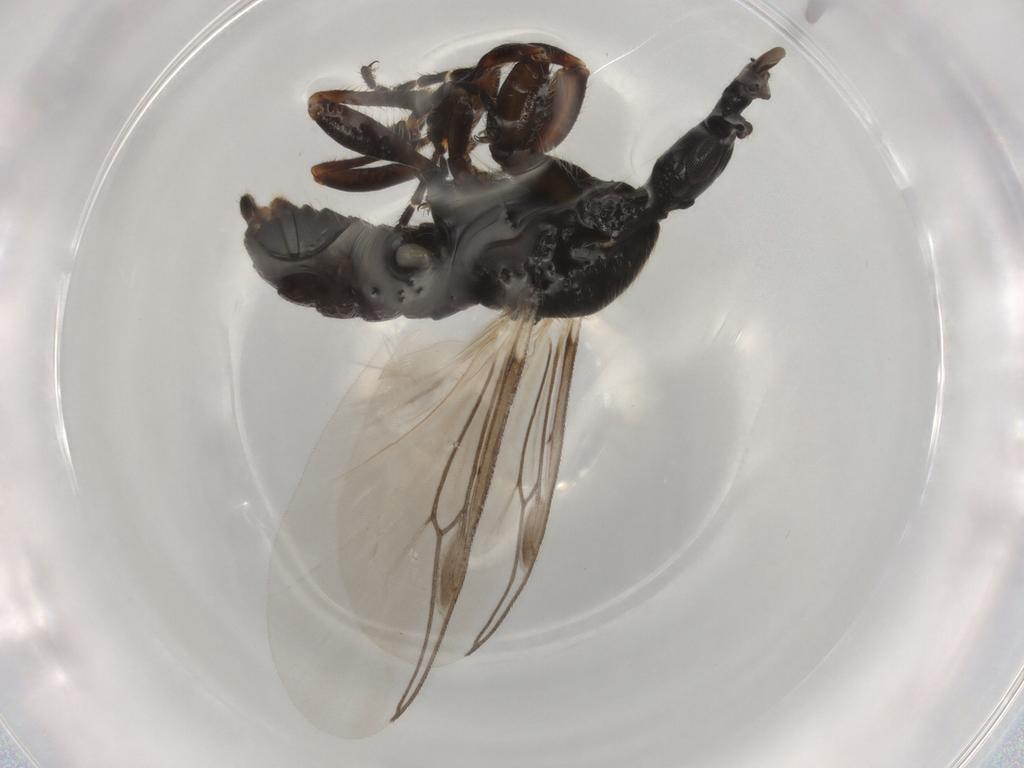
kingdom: Animalia
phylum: Arthropoda
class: Insecta
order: Diptera
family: Bibionidae
